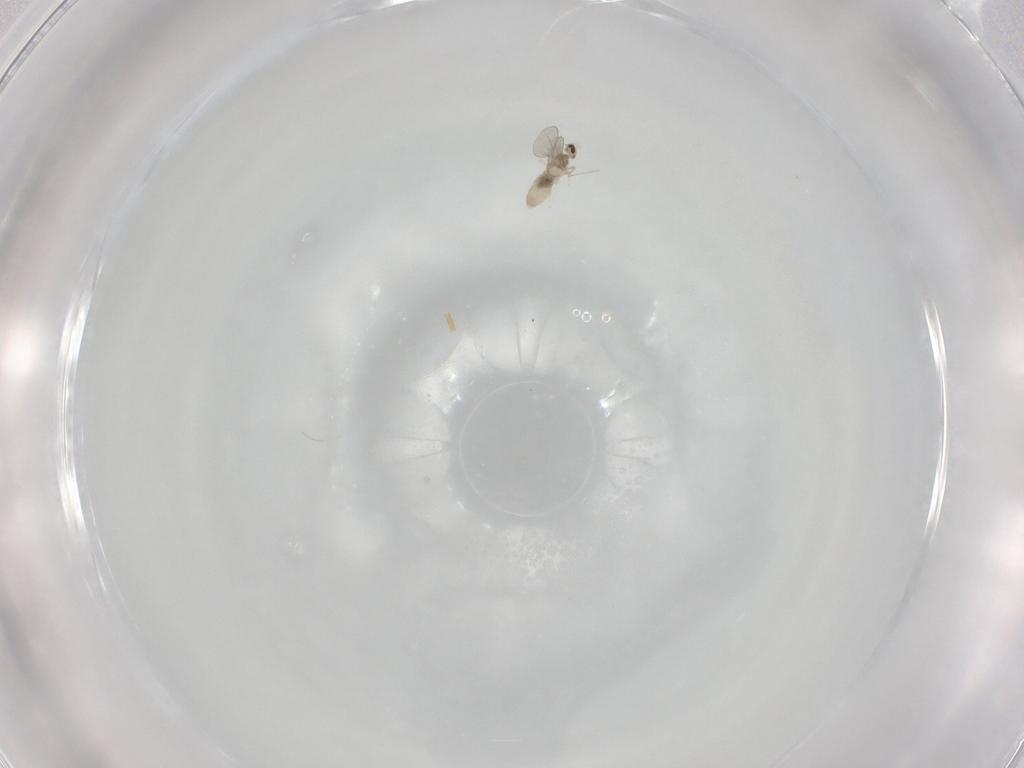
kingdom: Animalia
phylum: Arthropoda
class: Insecta
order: Diptera
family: Cecidomyiidae
